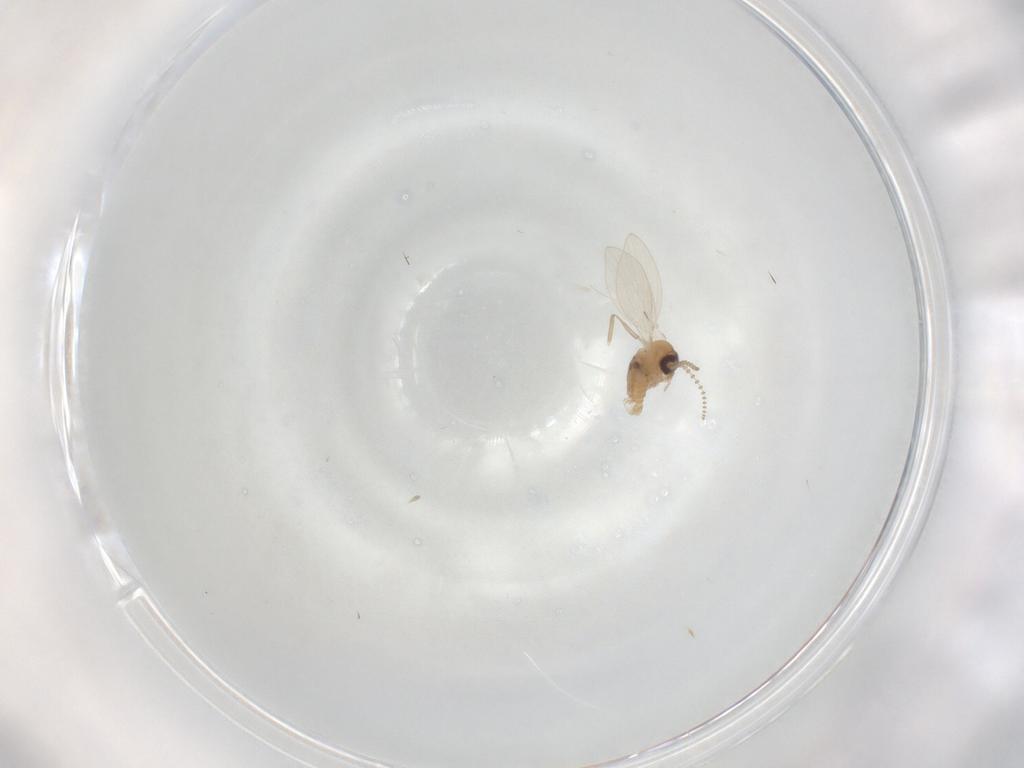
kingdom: Animalia
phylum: Arthropoda
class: Insecta
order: Diptera
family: Psychodidae
